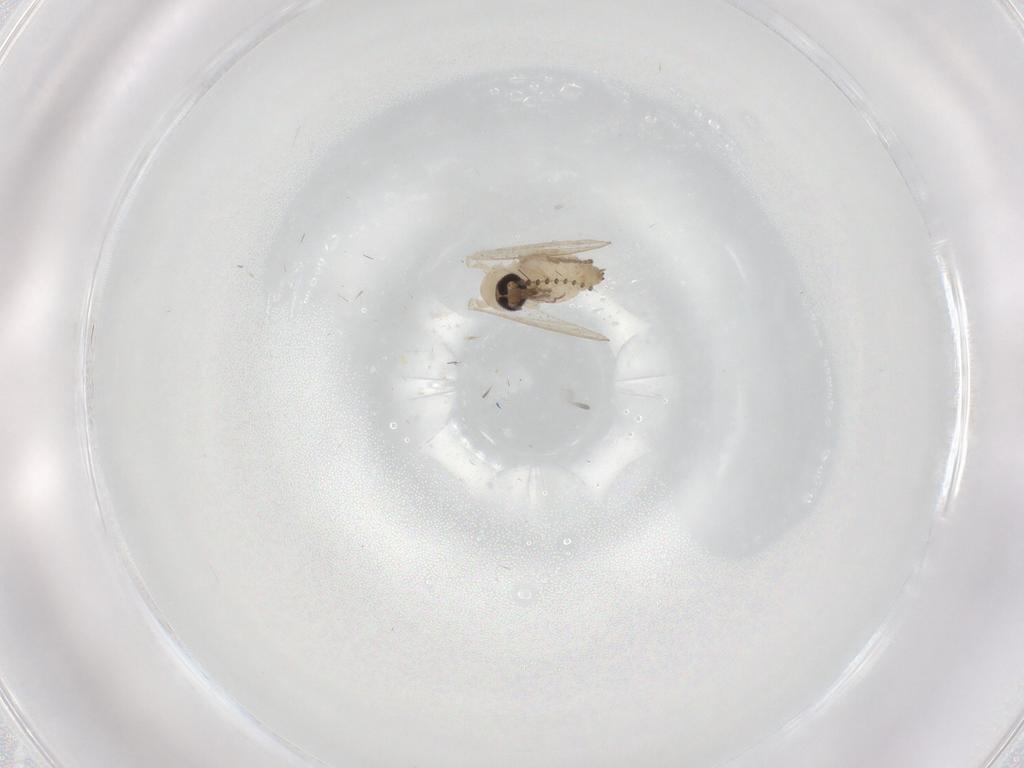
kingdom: Animalia
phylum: Arthropoda
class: Insecta
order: Diptera
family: Psychodidae
